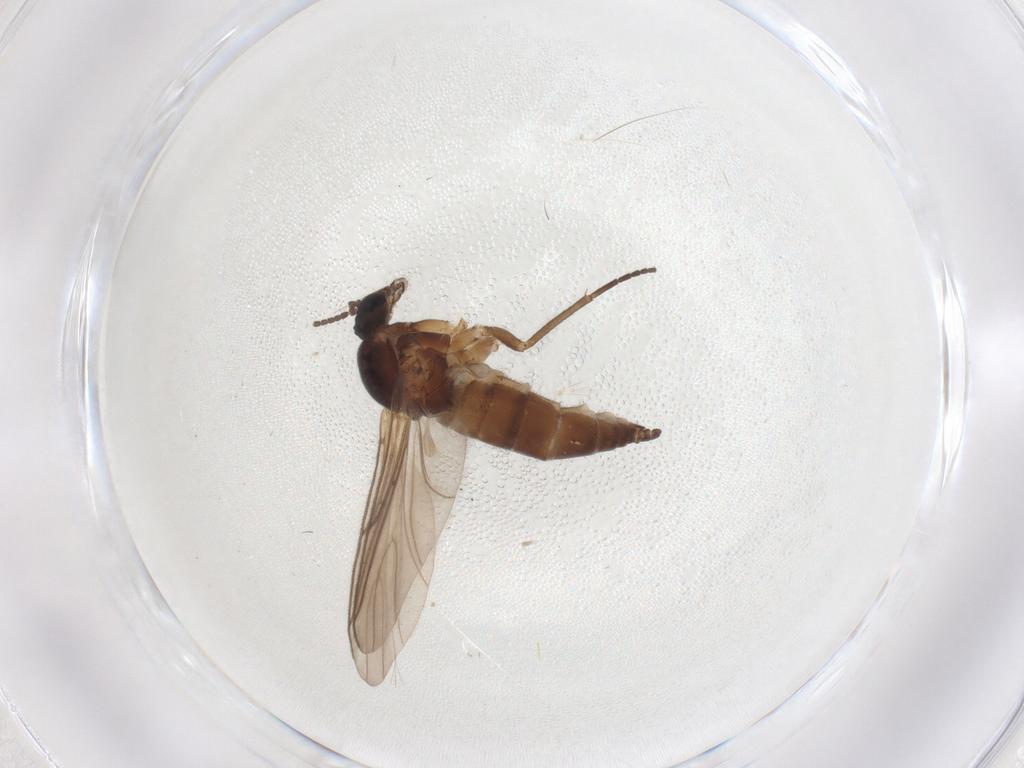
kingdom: Animalia
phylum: Arthropoda
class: Insecta
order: Diptera
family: Sciaridae
